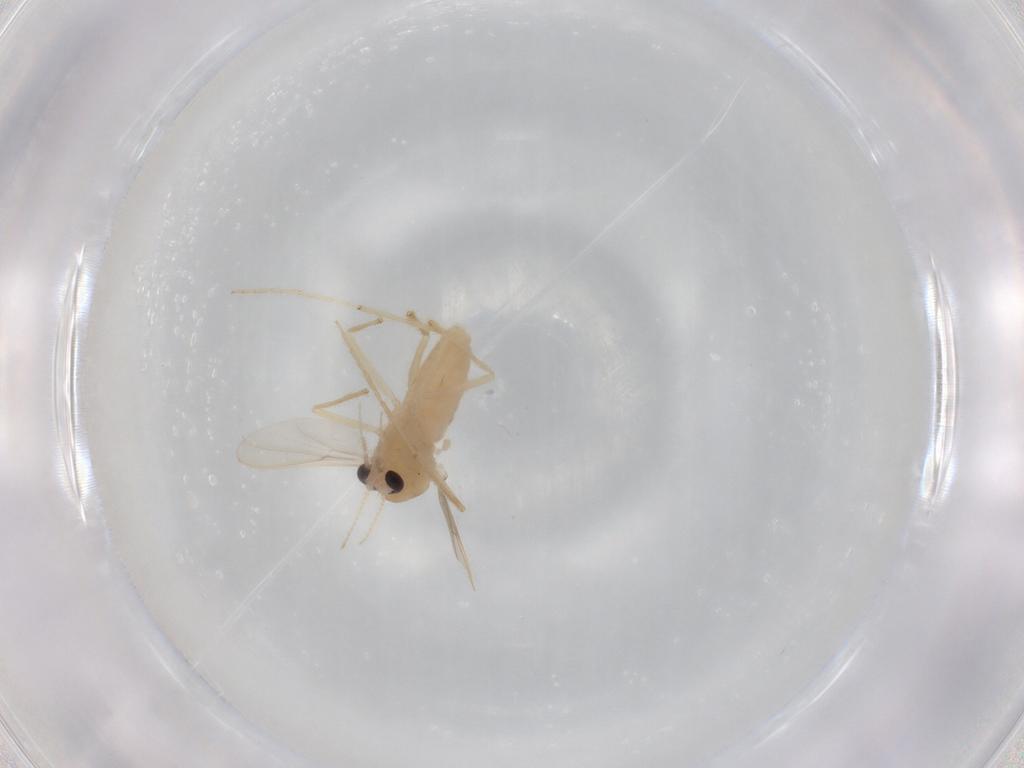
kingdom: Animalia
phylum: Arthropoda
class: Insecta
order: Diptera
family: Chironomidae
